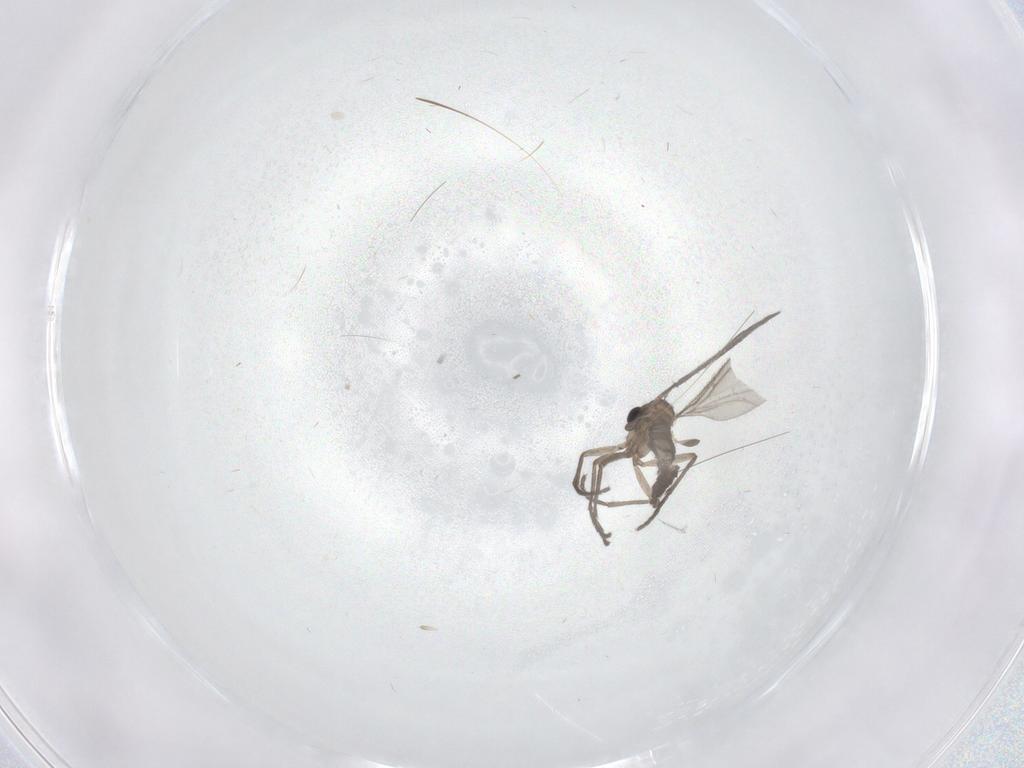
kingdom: Animalia
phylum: Arthropoda
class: Insecta
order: Diptera
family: Sciaridae
